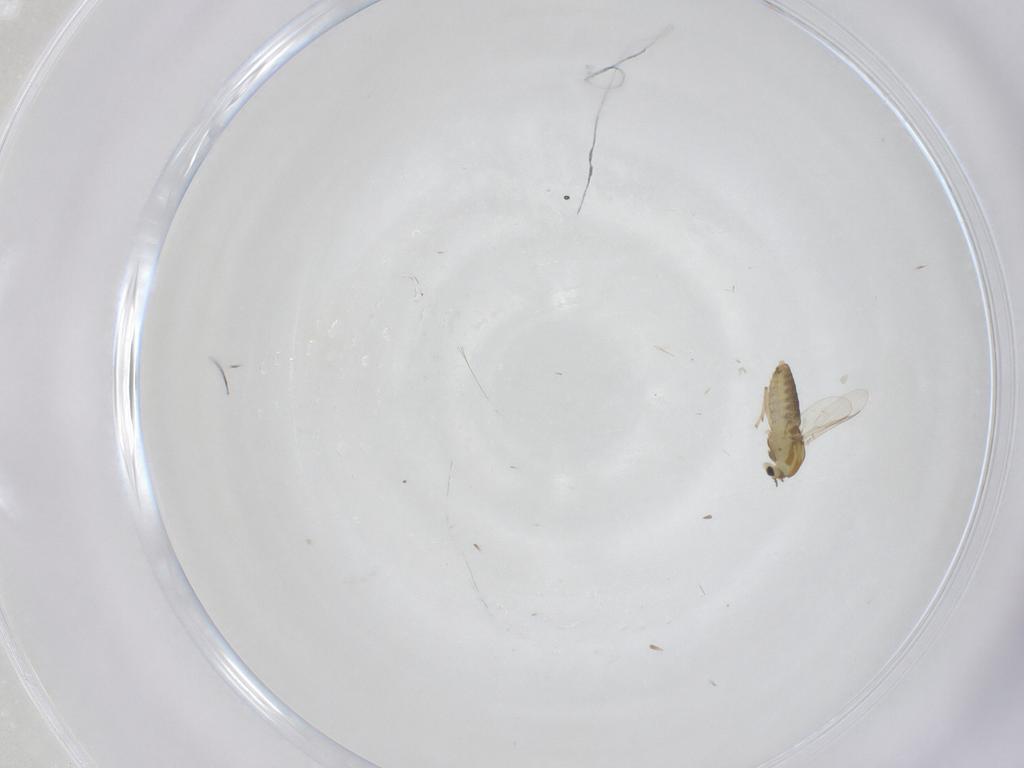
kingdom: Animalia
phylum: Arthropoda
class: Insecta
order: Diptera
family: Chironomidae
